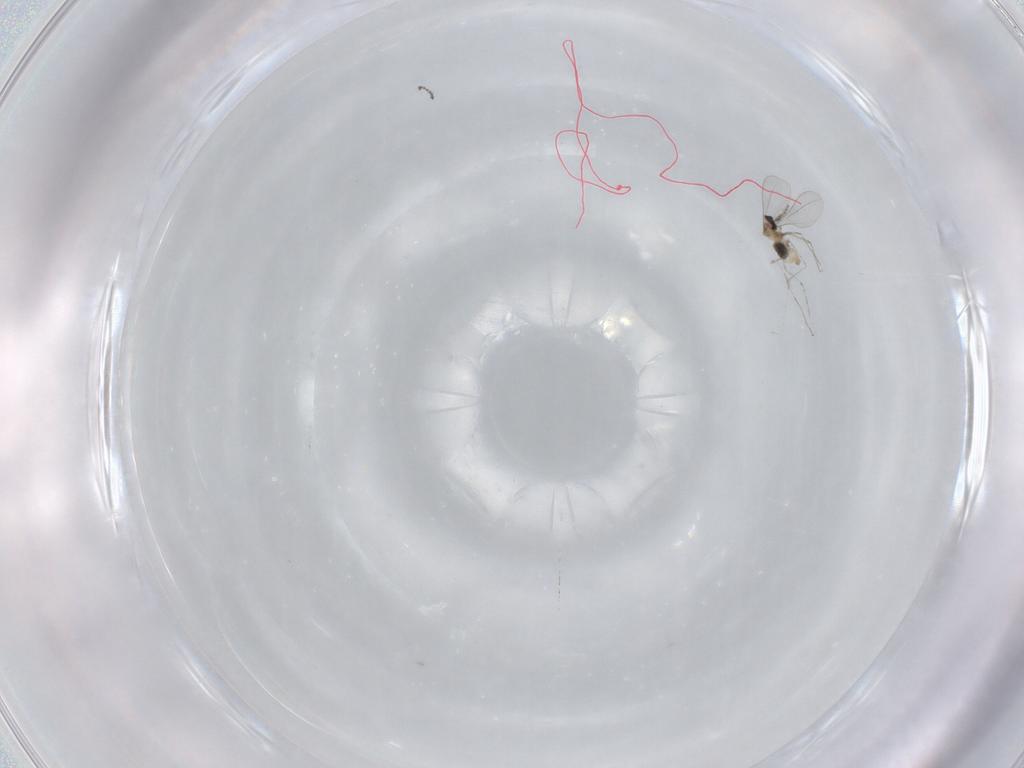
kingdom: Animalia
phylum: Arthropoda
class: Insecta
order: Diptera
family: Cecidomyiidae
